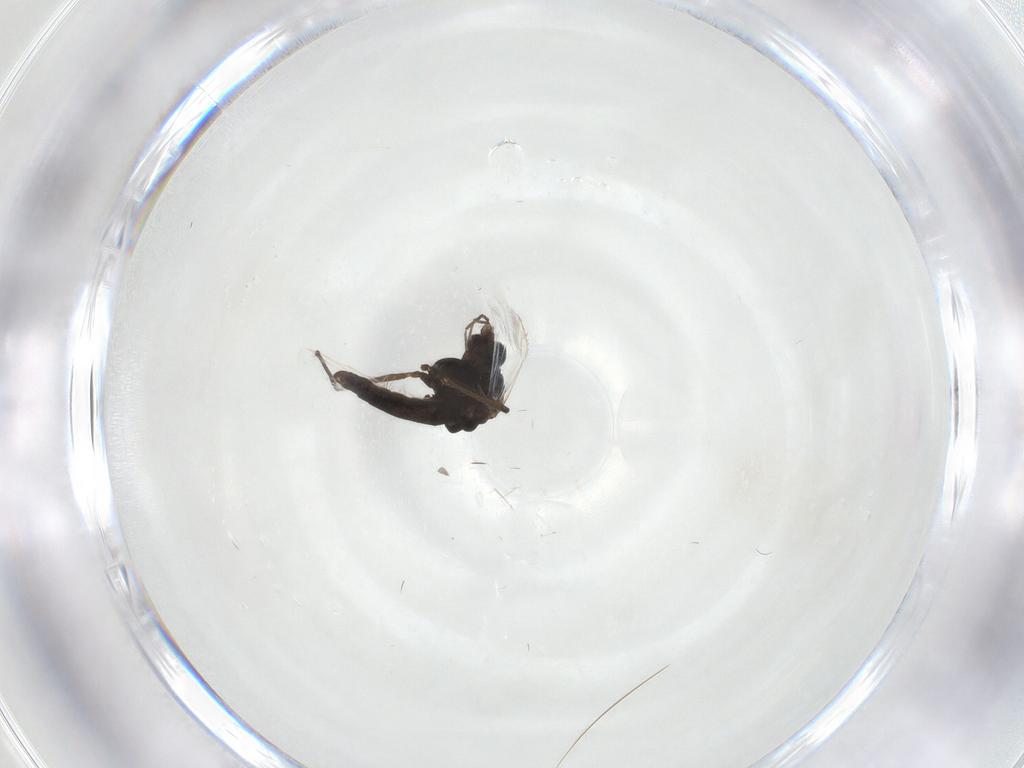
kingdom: Animalia
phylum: Arthropoda
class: Insecta
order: Diptera
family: Chironomidae
